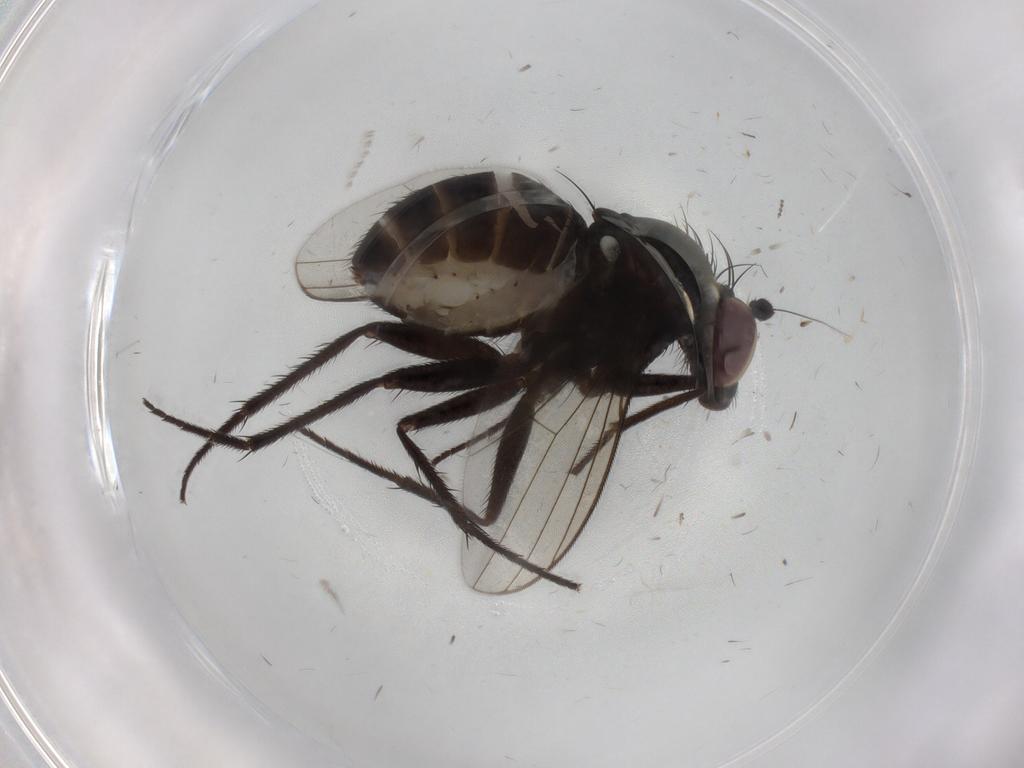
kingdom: Animalia
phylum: Arthropoda
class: Insecta
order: Diptera
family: Dolichopodidae
